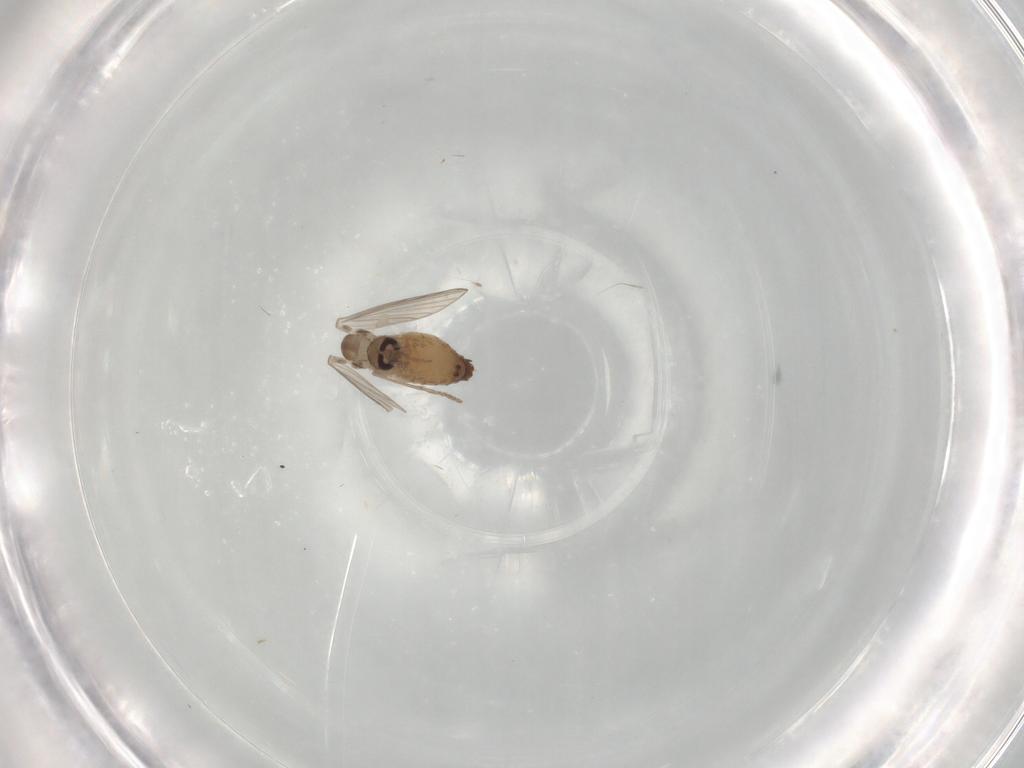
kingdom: Animalia
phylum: Arthropoda
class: Insecta
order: Diptera
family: Psychodidae
